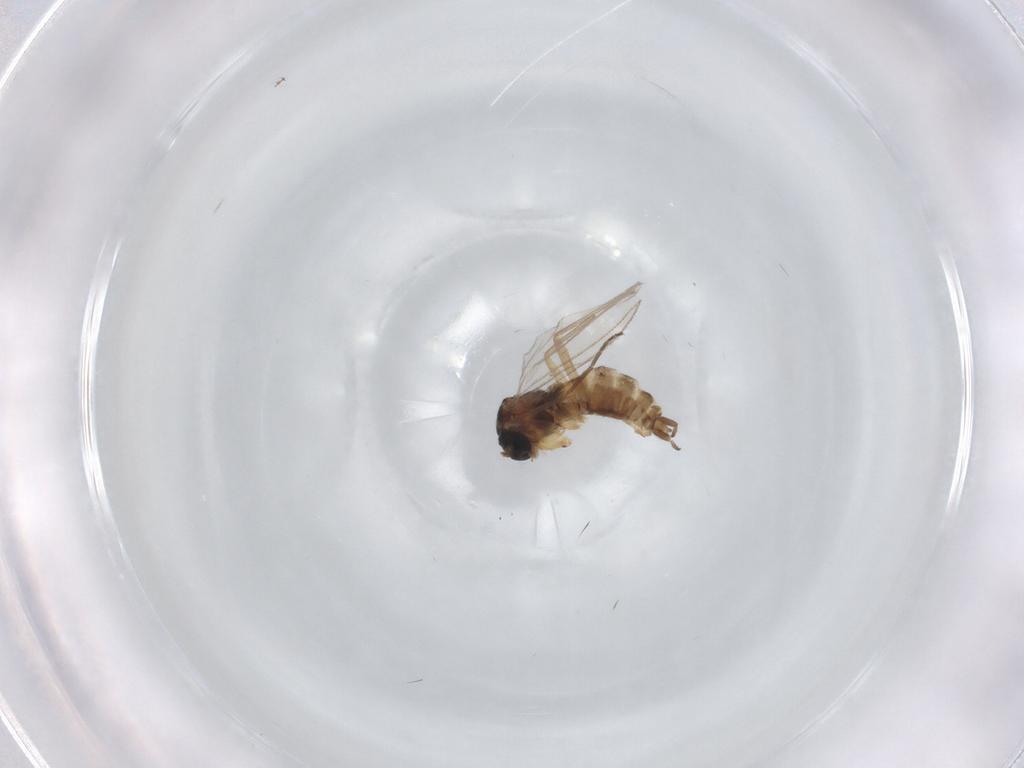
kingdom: Animalia
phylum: Arthropoda
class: Insecta
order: Diptera
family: Sciaridae
